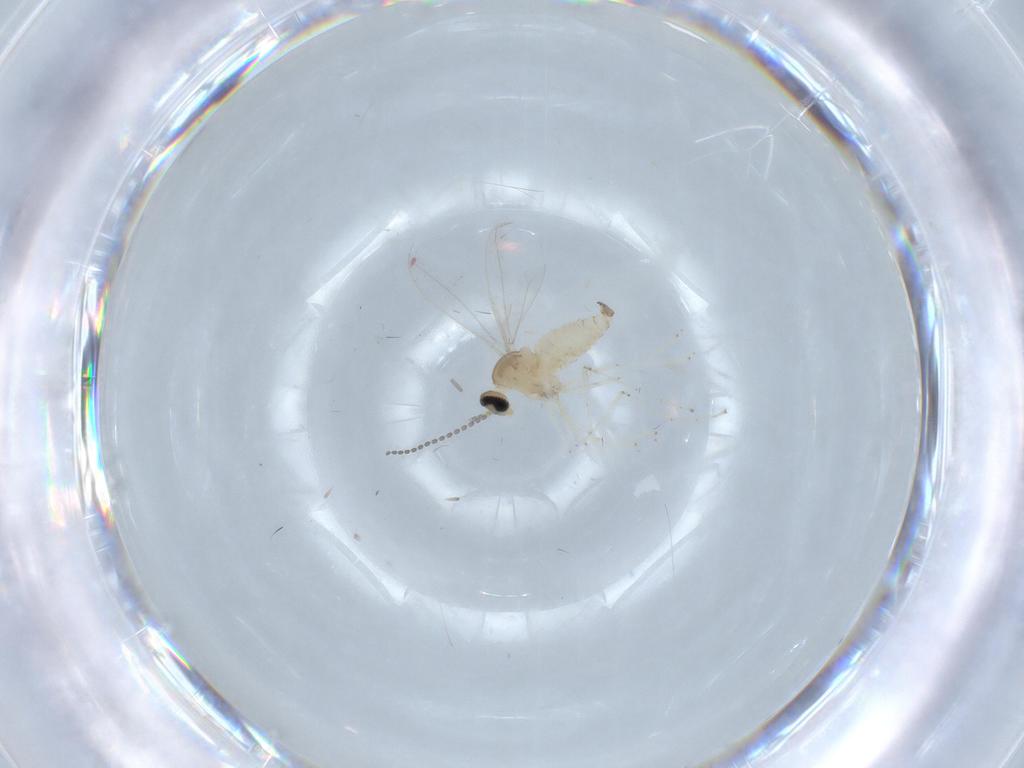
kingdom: Animalia
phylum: Arthropoda
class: Insecta
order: Diptera
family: Agromyzidae
